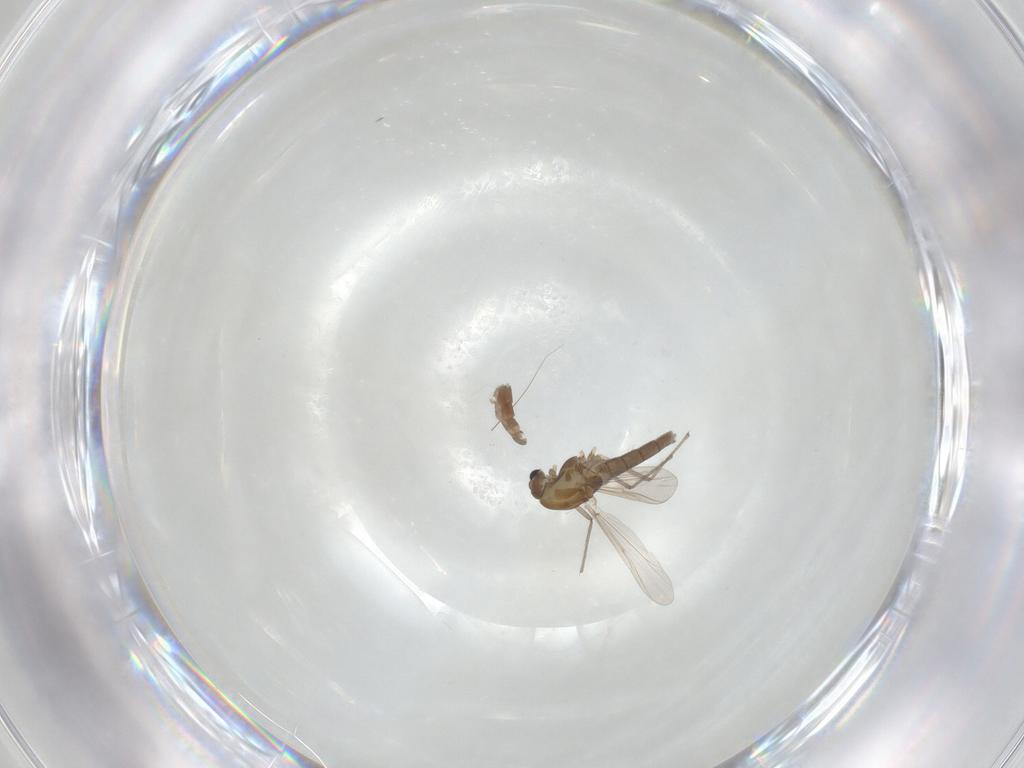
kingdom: Animalia
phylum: Arthropoda
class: Insecta
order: Diptera
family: Chironomidae
